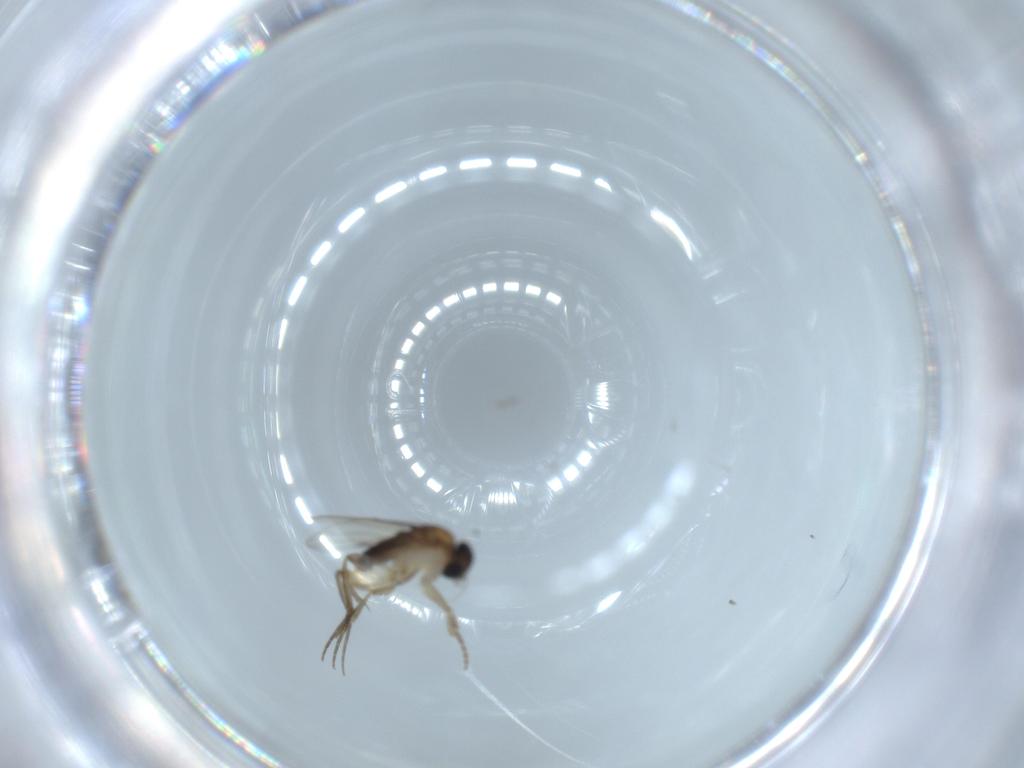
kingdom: Animalia
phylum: Arthropoda
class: Insecta
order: Diptera
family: Phoridae
